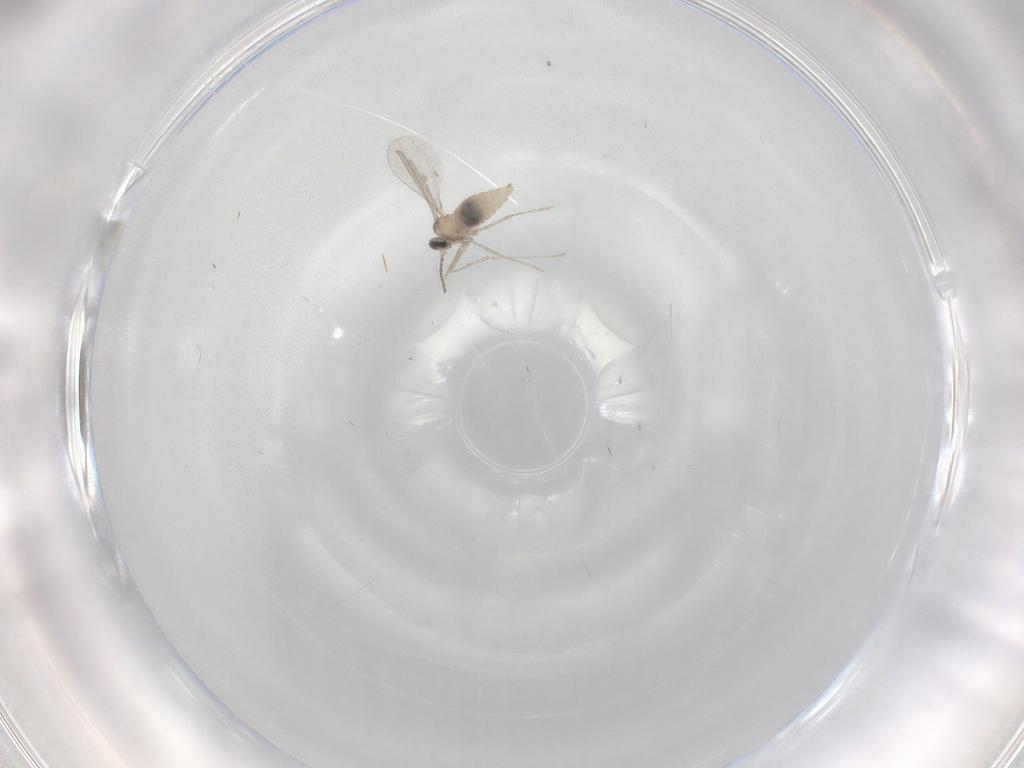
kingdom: Animalia
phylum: Arthropoda
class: Insecta
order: Diptera
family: Cecidomyiidae
